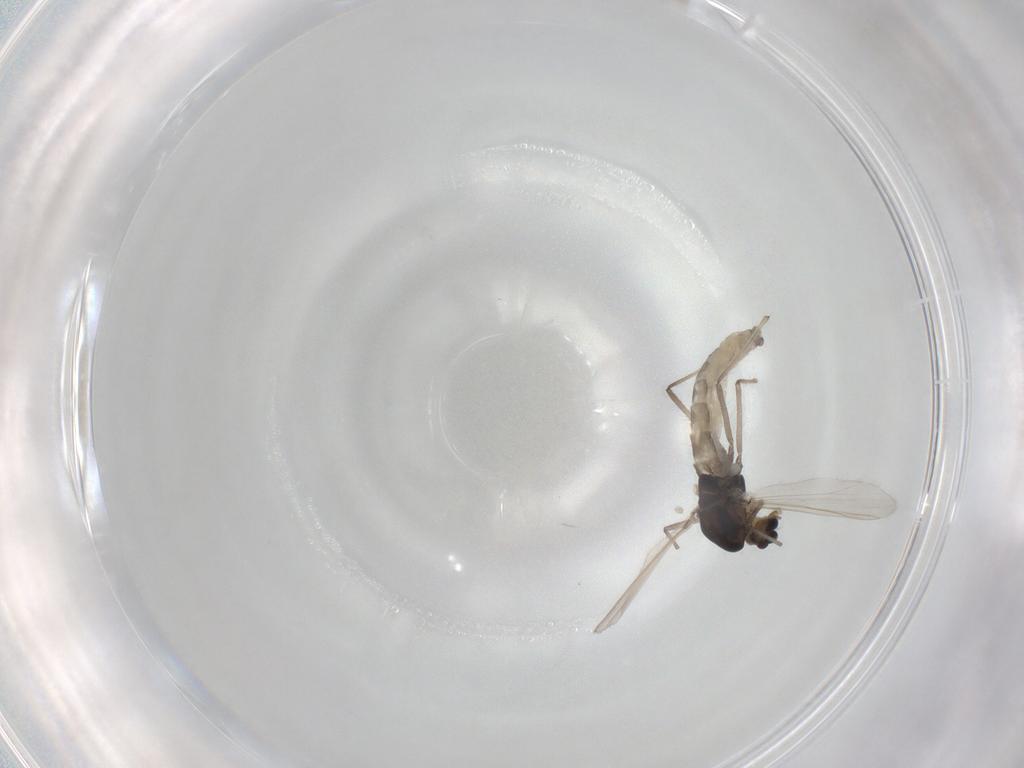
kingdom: Animalia
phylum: Arthropoda
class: Insecta
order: Diptera
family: Chironomidae
